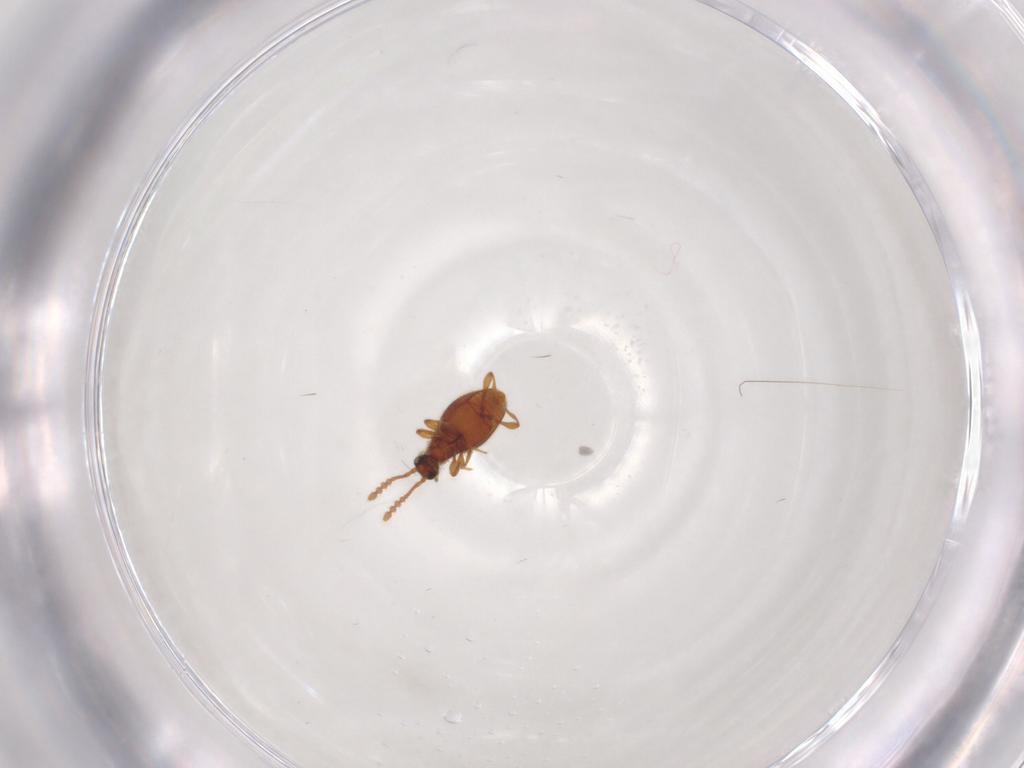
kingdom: Animalia
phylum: Arthropoda
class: Insecta
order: Coleoptera
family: Staphylinidae
